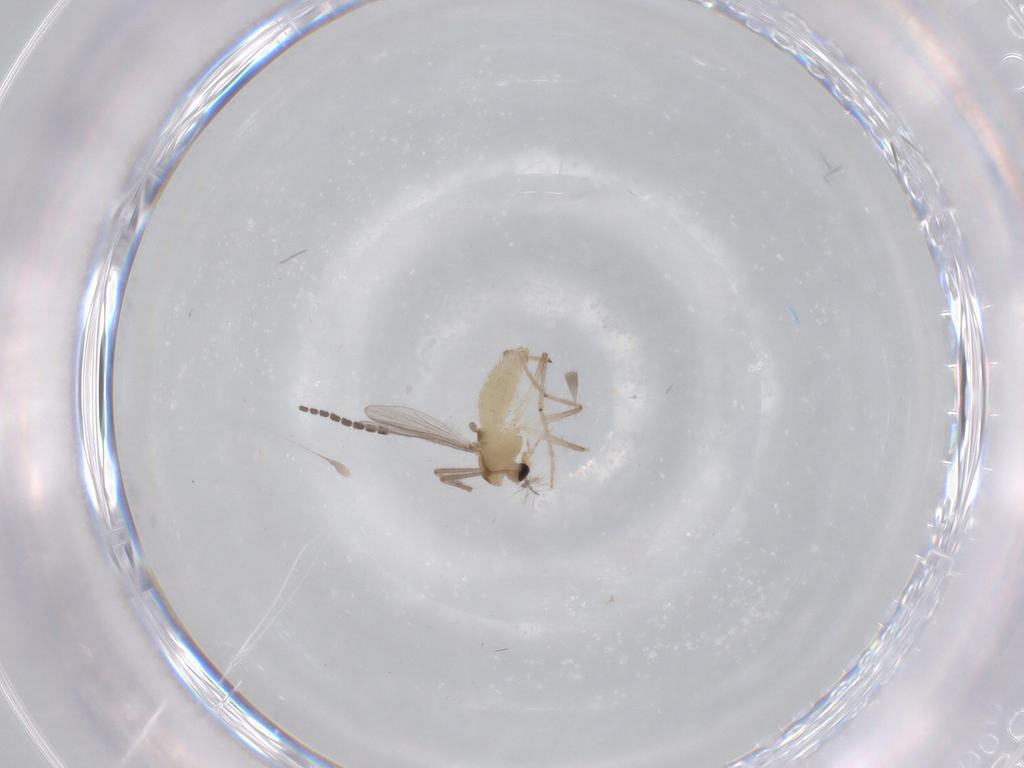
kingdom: Animalia
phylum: Arthropoda
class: Insecta
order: Diptera
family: Chironomidae
